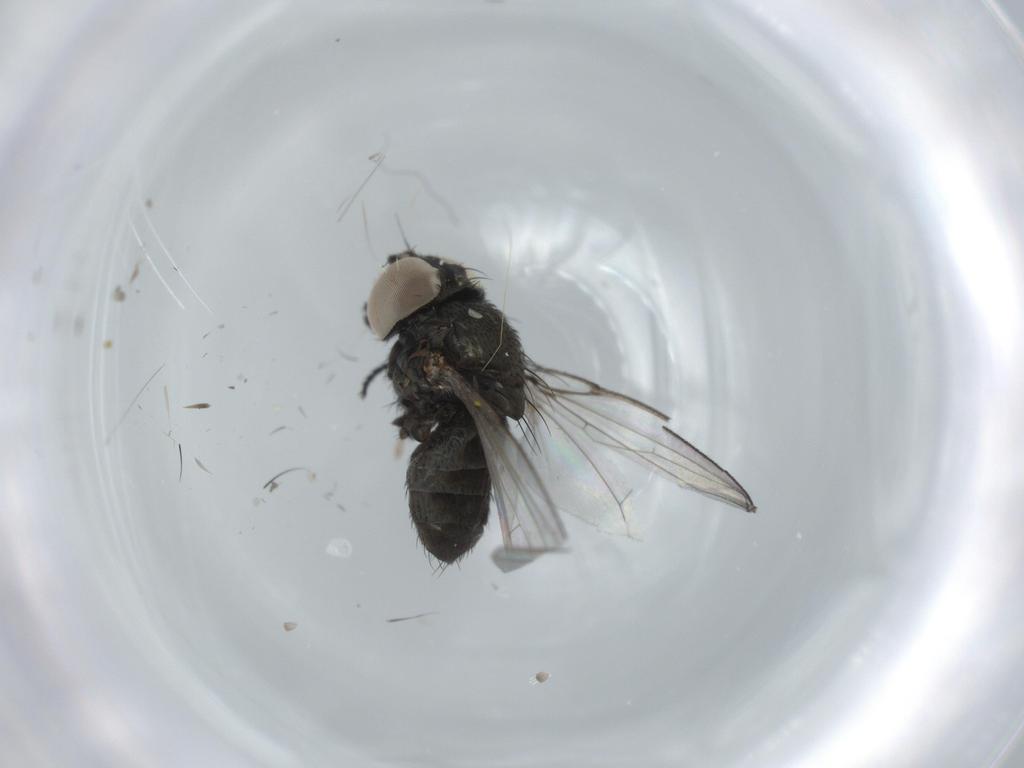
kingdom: Animalia
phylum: Arthropoda
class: Insecta
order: Diptera
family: Milichiidae
